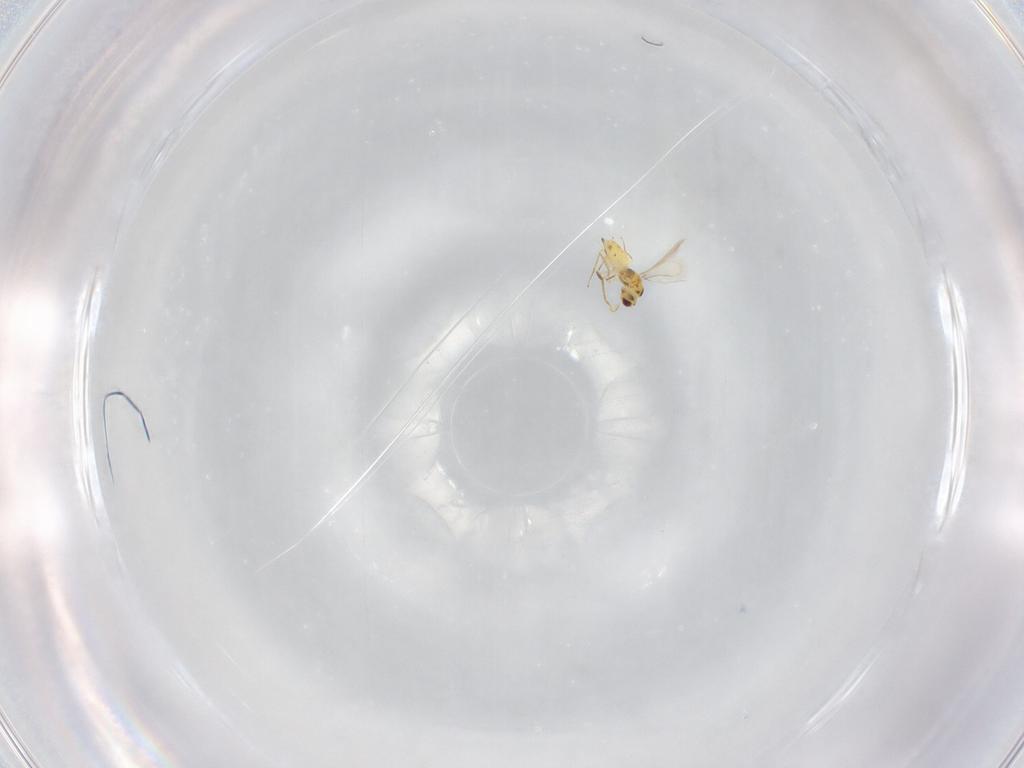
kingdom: Animalia
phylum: Arthropoda
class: Insecta
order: Hymenoptera
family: Mymaridae
